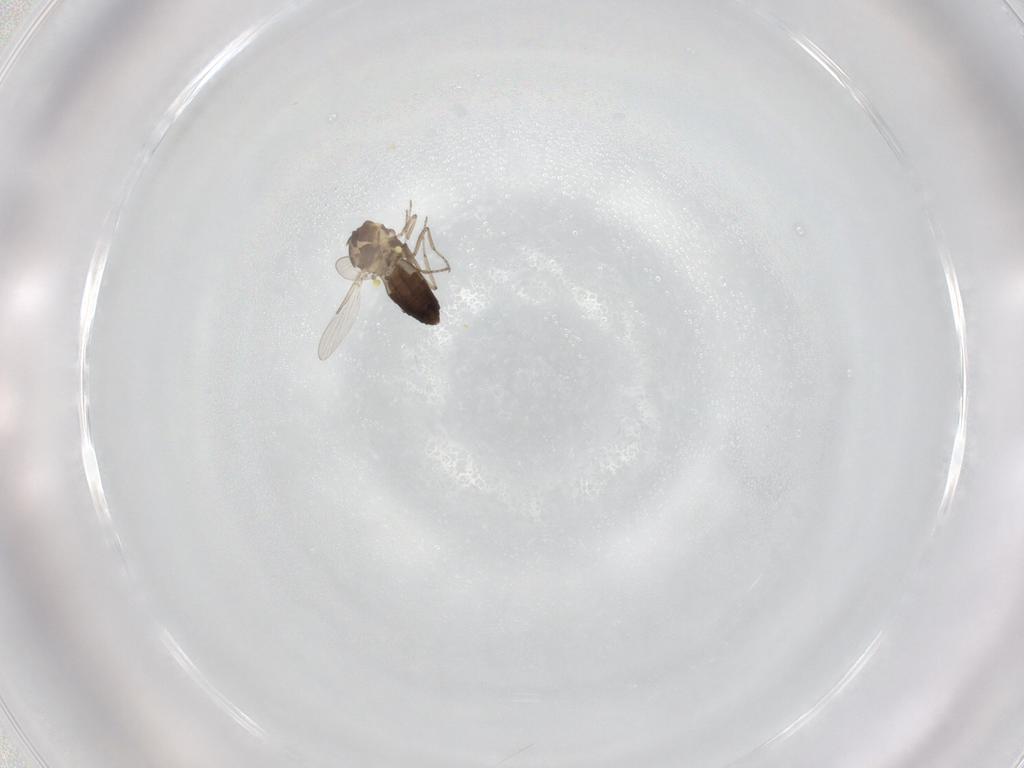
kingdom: Animalia
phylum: Arthropoda
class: Insecta
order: Diptera
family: Ceratopogonidae
